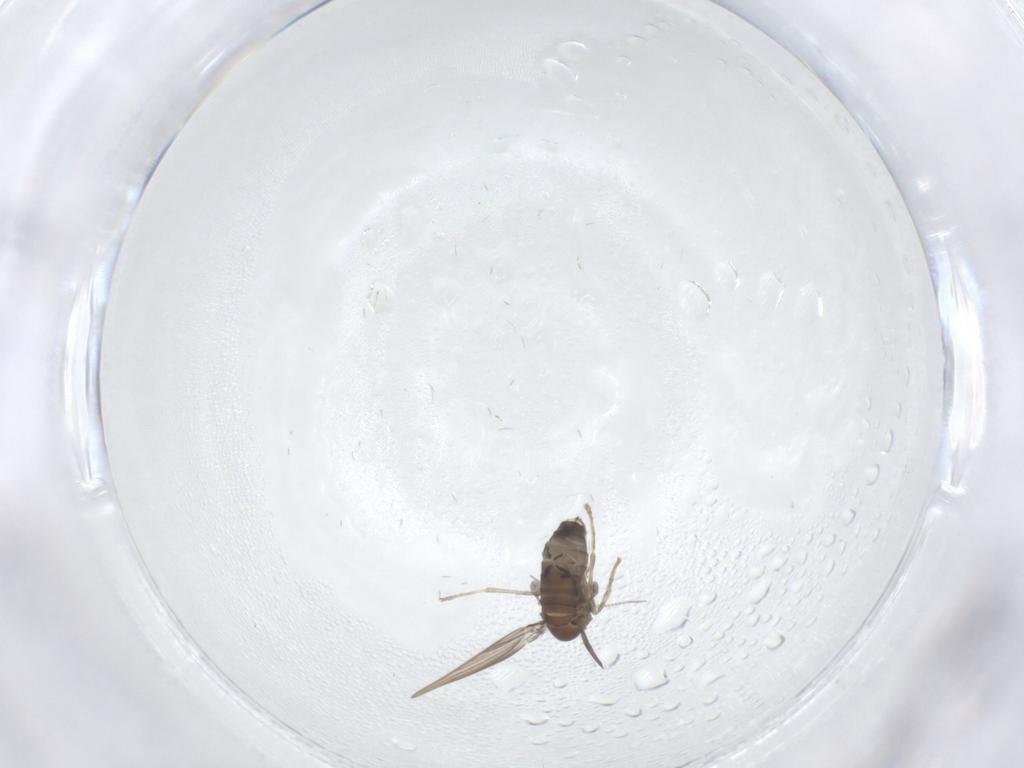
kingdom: Animalia
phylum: Arthropoda
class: Insecta
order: Diptera
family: Psychodidae
